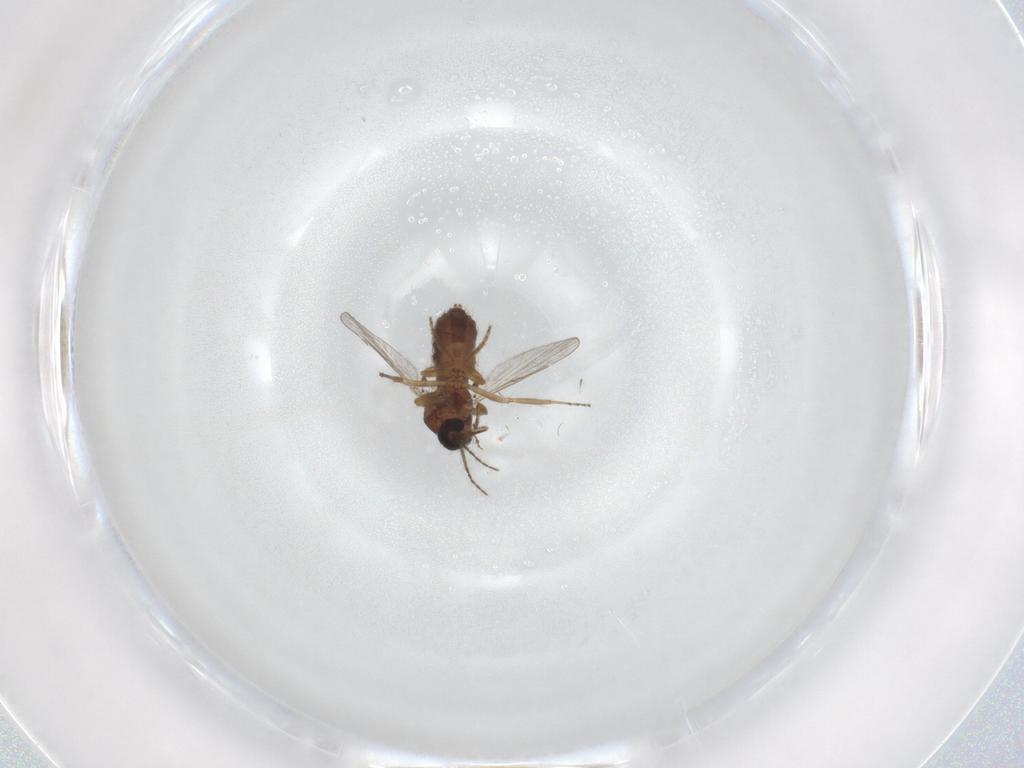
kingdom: Animalia
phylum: Arthropoda
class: Insecta
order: Diptera
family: Ceratopogonidae
